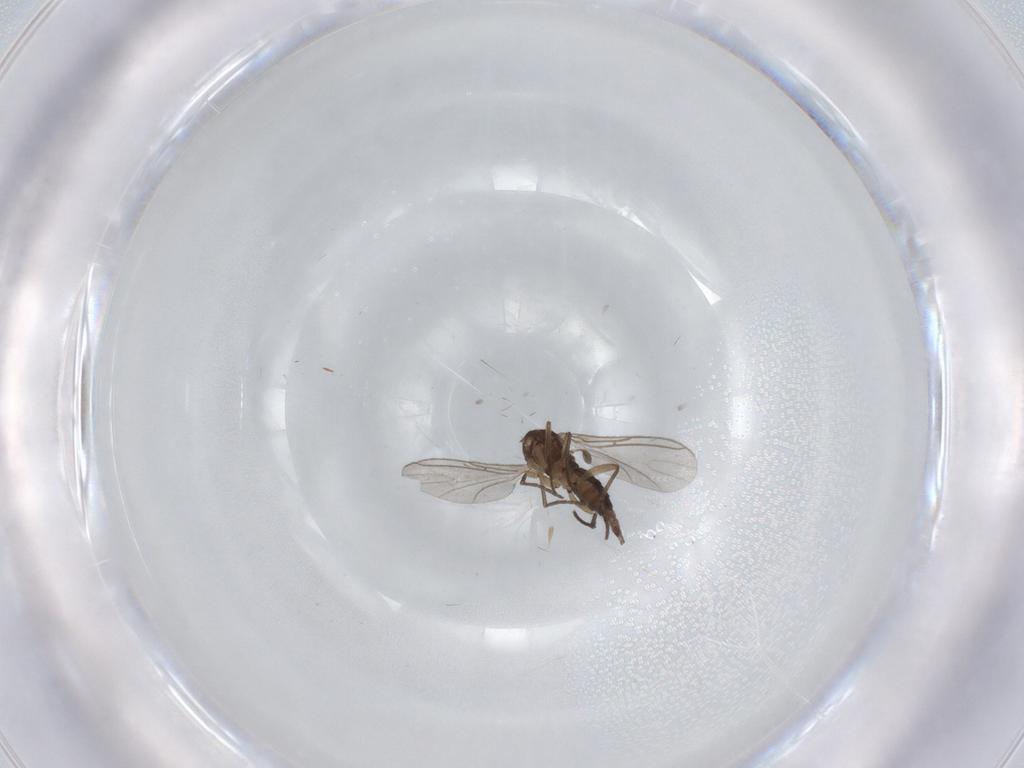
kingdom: Animalia
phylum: Arthropoda
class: Insecta
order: Diptera
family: Sciaridae
